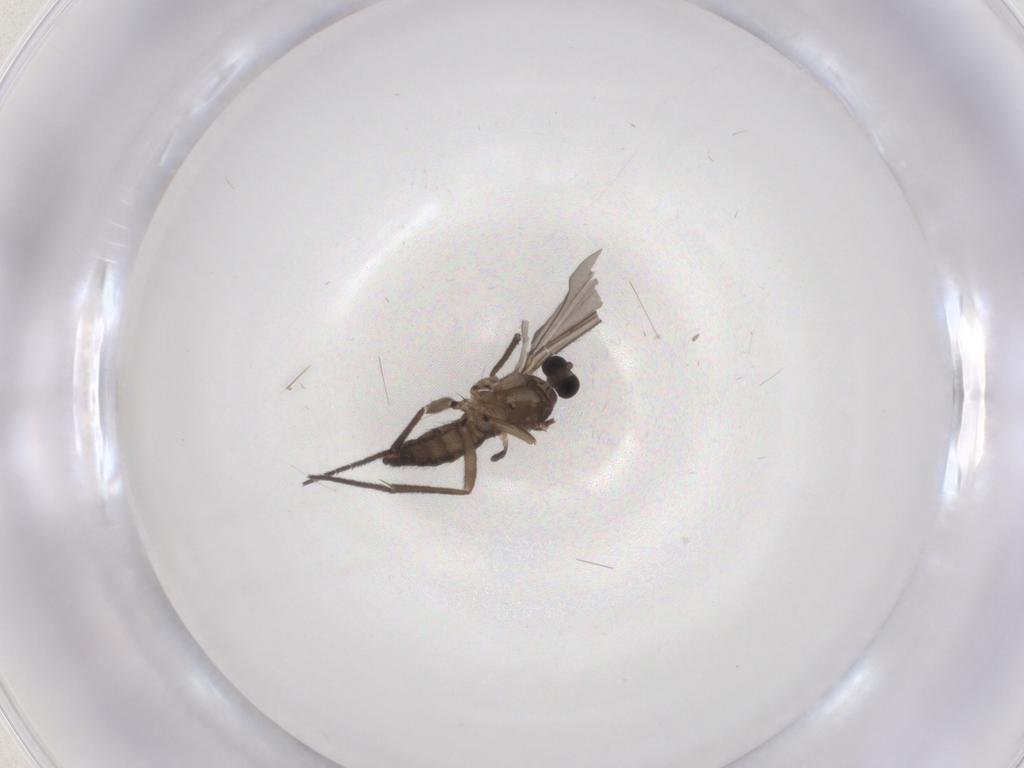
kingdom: Animalia
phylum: Arthropoda
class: Insecta
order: Diptera
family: Sciaridae
